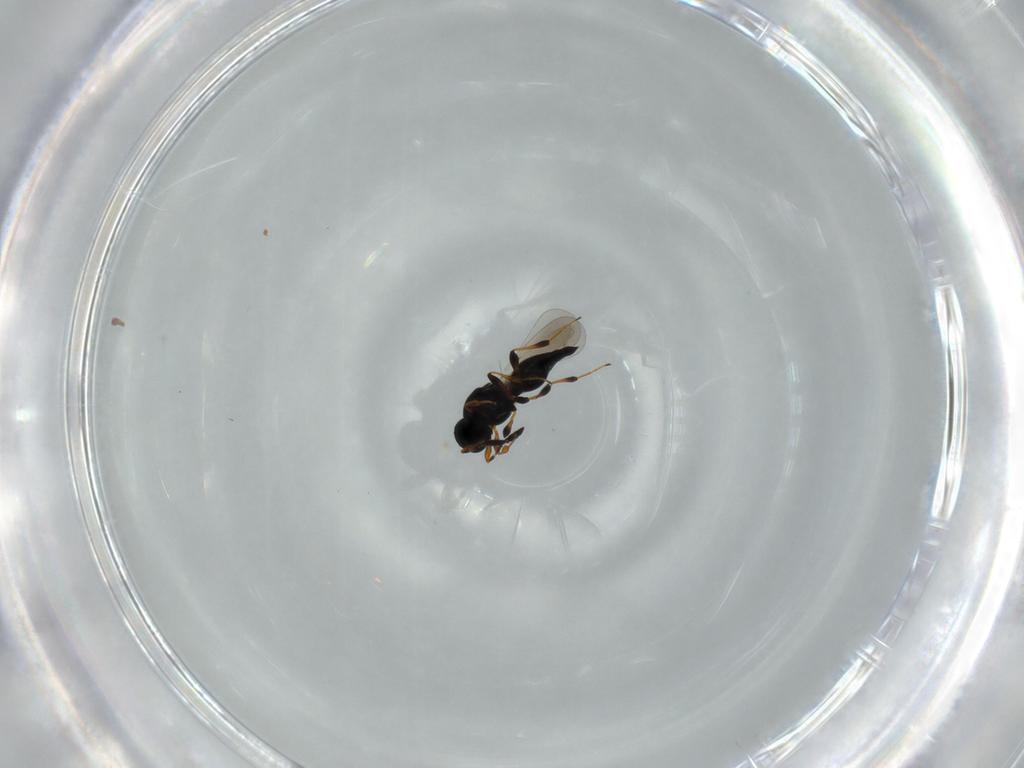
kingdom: Animalia
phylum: Arthropoda
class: Insecta
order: Hymenoptera
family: Platygastridae
